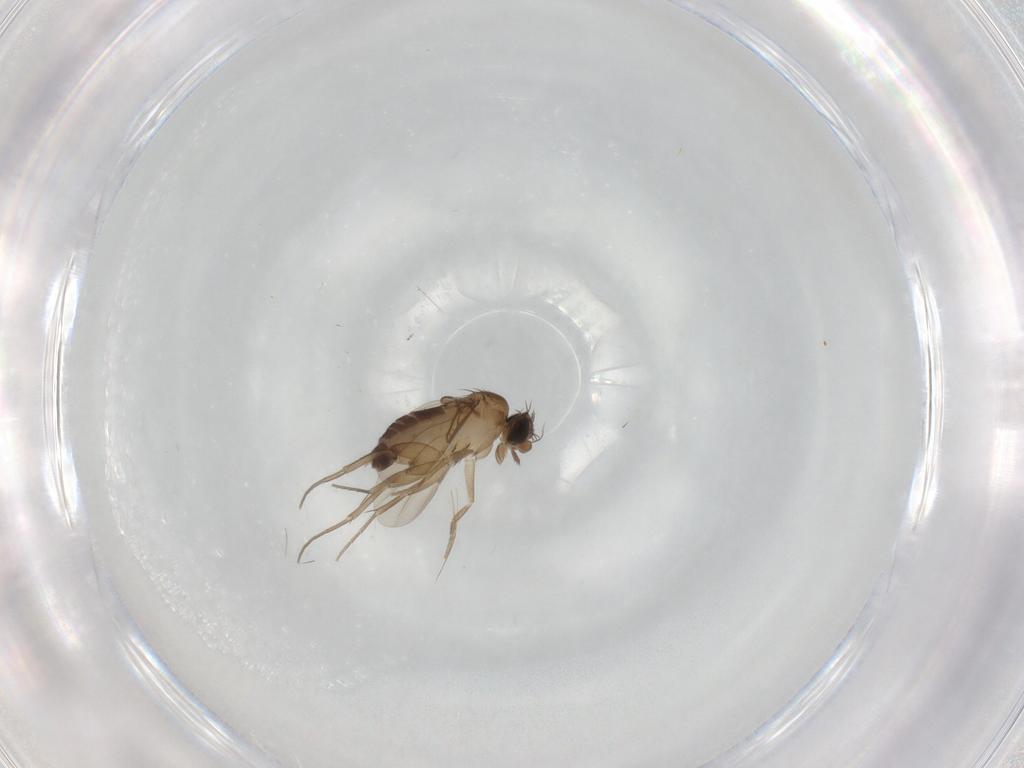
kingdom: Animalia
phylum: Arthropoda
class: Insecta
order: Diptera
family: Phoridae
